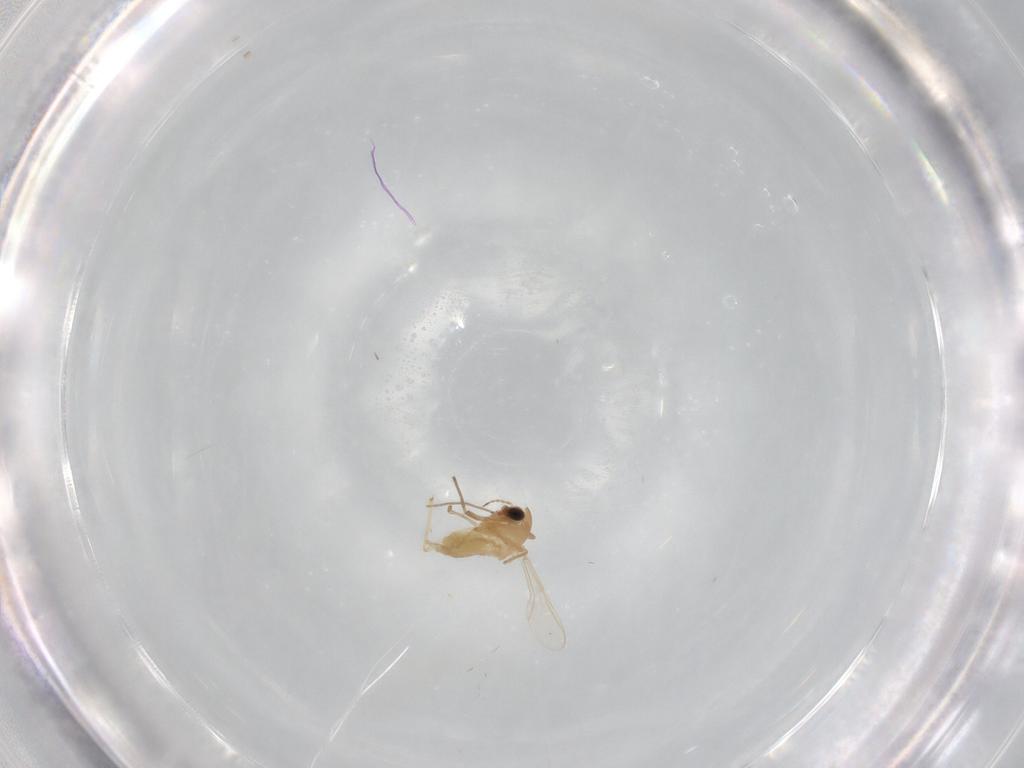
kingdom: Animalia
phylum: Arthropoda
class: Insecta
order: Diptera
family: Chironomidae
